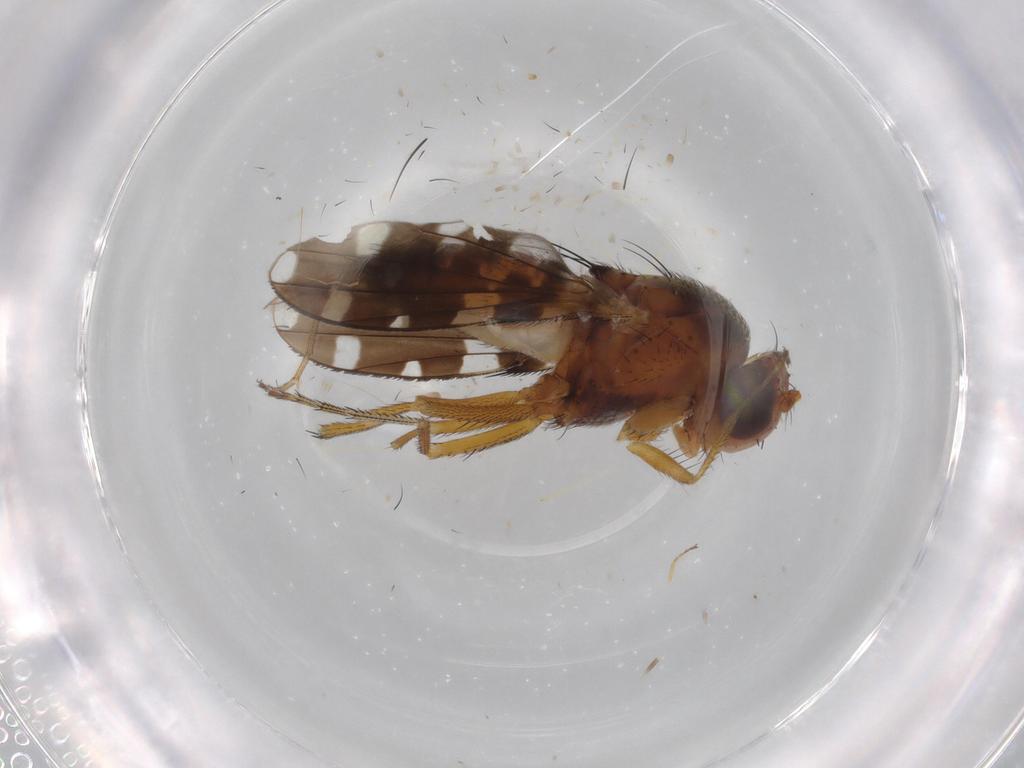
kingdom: Animalia
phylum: Arthropoda
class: Insecta
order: Diptera
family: Ephydridae
